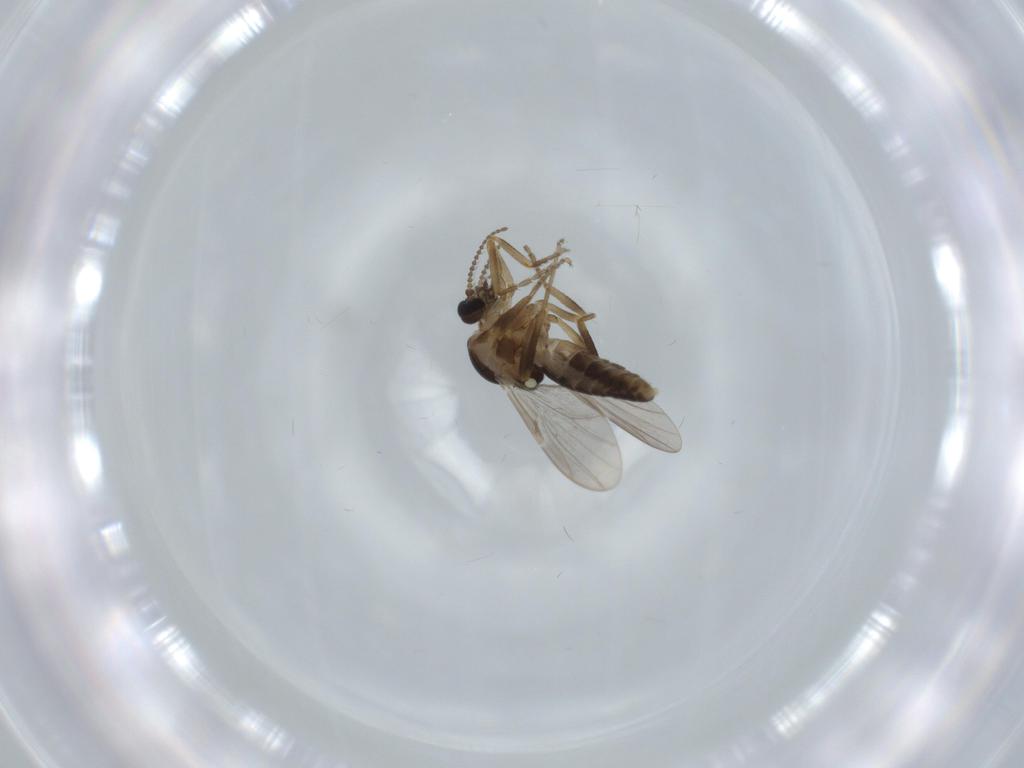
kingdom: Animalia
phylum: Arthropoda
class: Insecta
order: Diptera
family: Ceratopogonidae
